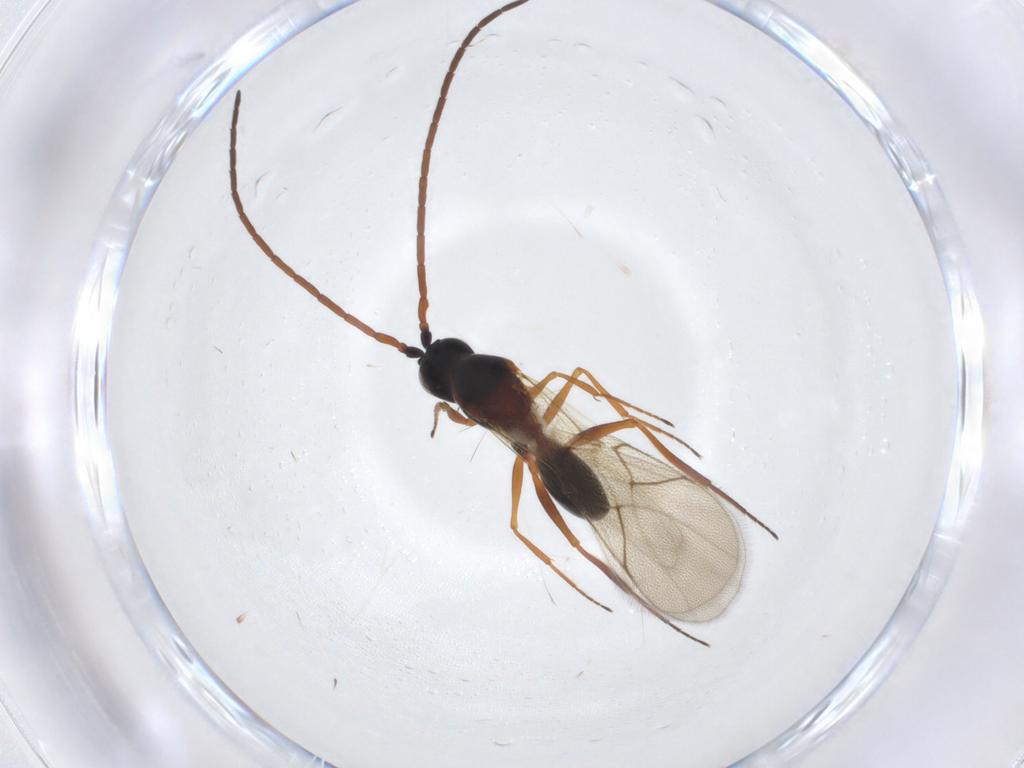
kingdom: Animalia
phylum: Arthropoda
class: Insecta
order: Hymenoptera
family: Figitidae
